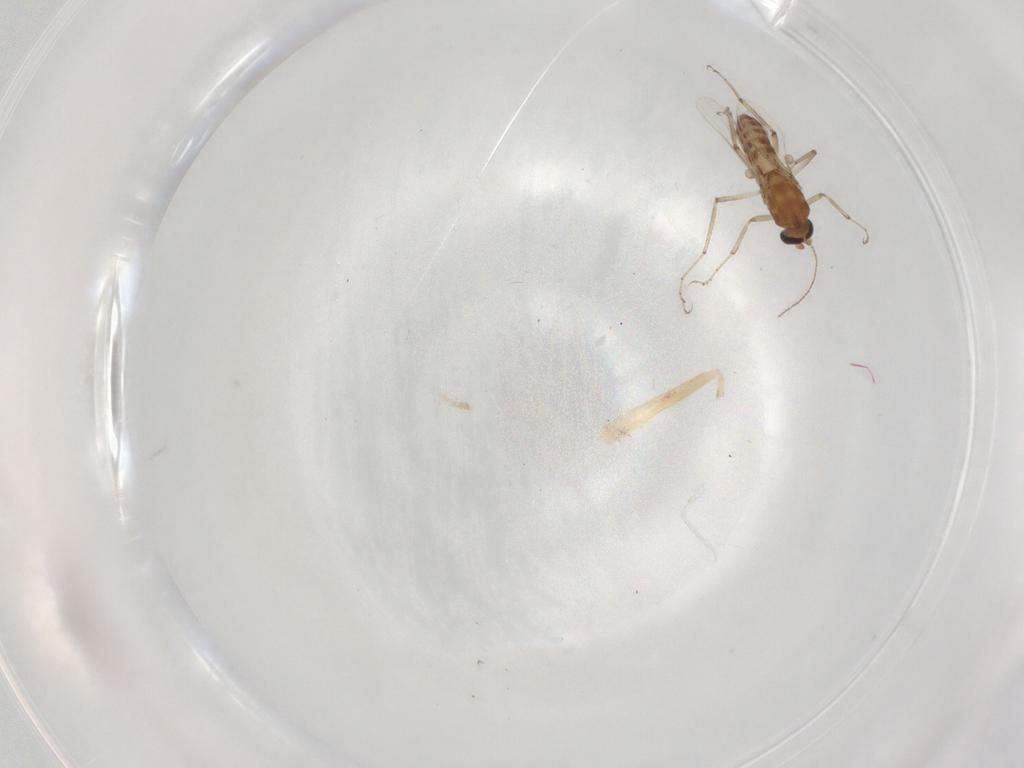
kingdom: Animalia
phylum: Arthropoda
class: Insecta
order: Diptera
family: Ceratopogonidae
